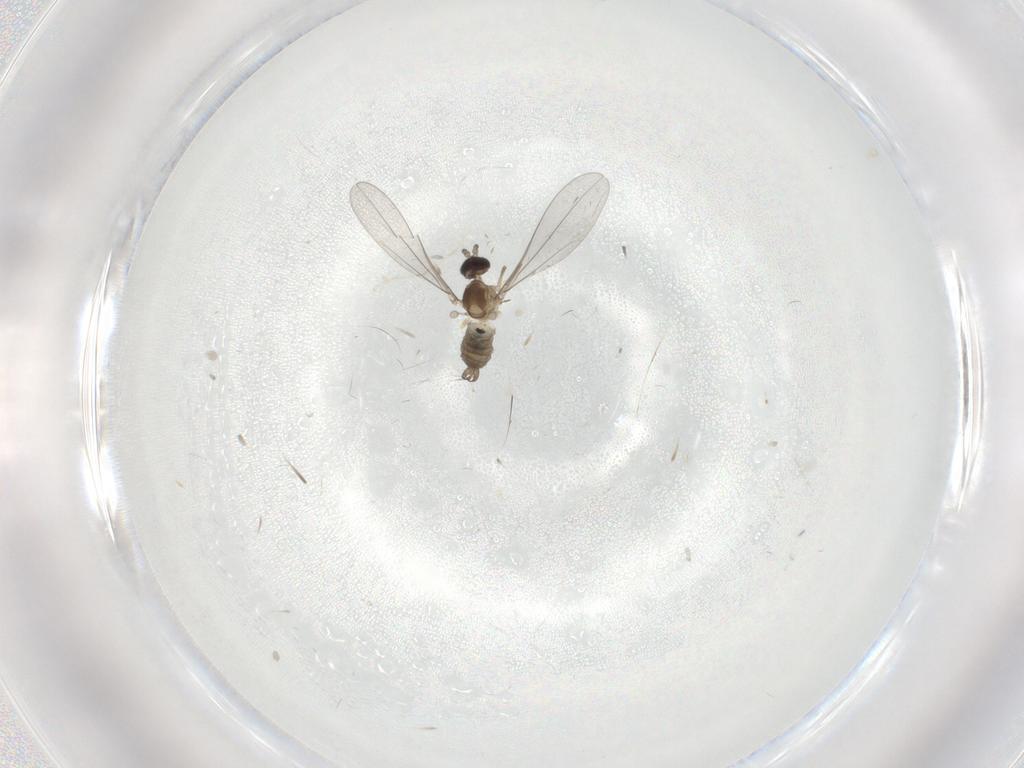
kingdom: Animalia
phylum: Arthropoda
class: Insecta
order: Diptera
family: Cecidomyiidae
